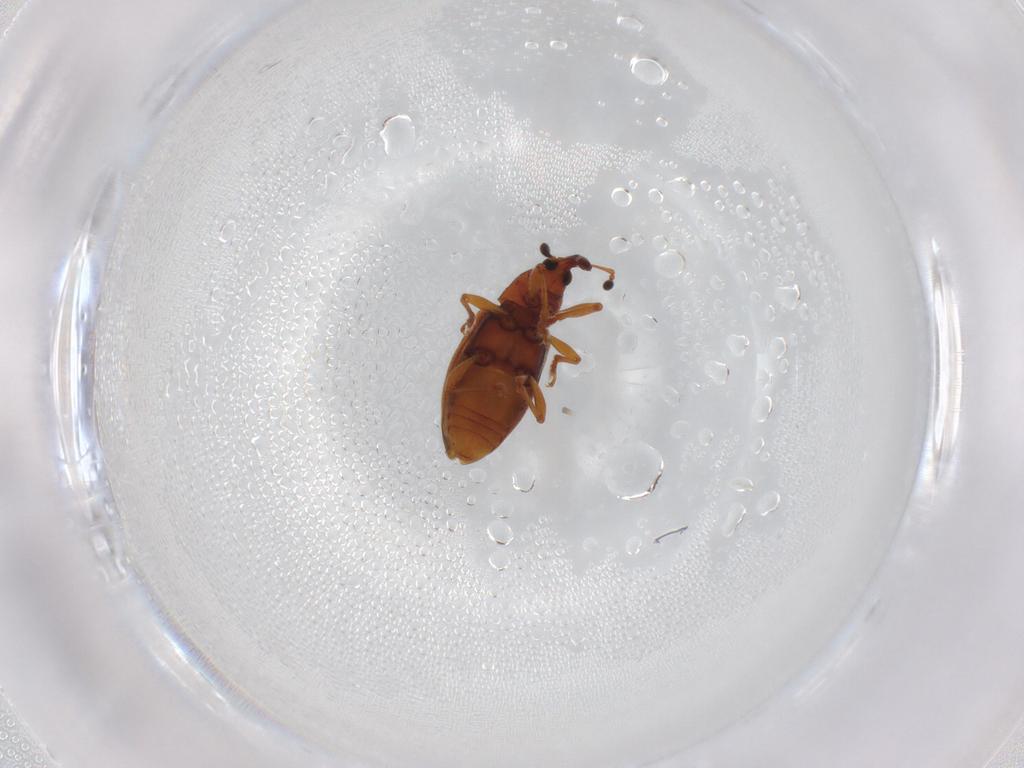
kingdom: Animalia
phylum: Arthropoda
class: Insecta
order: Coleoptera
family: Curculionidae
